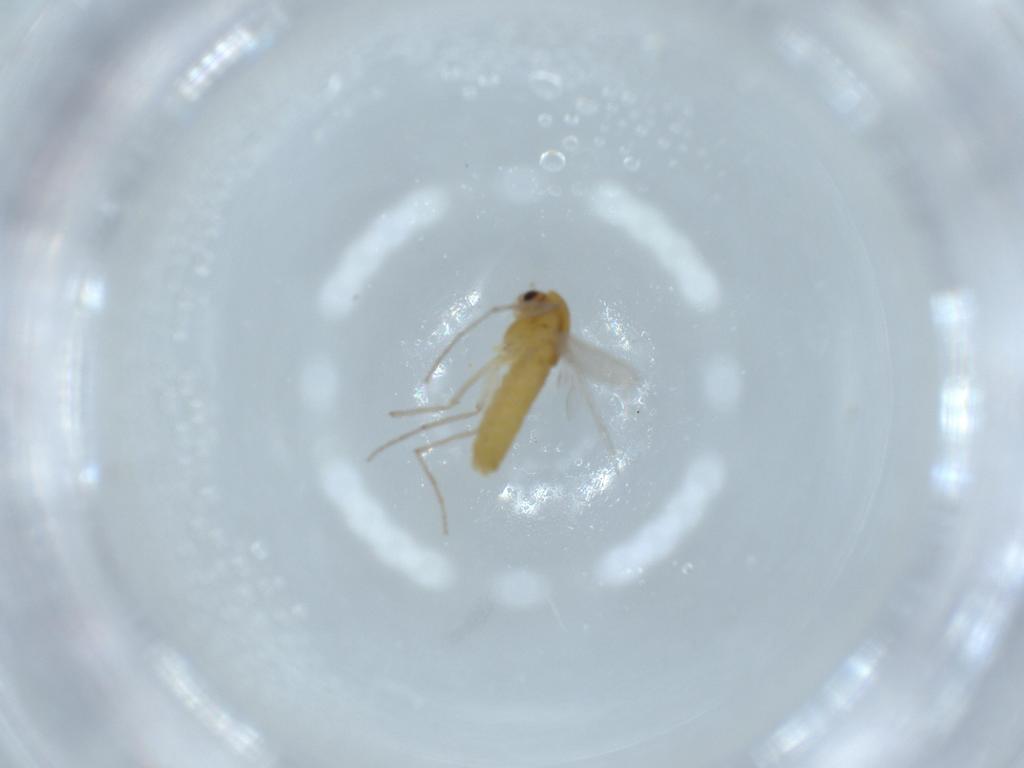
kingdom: Animalia
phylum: Arthropoda
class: Insecta
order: Diptera
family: Chironomidae
